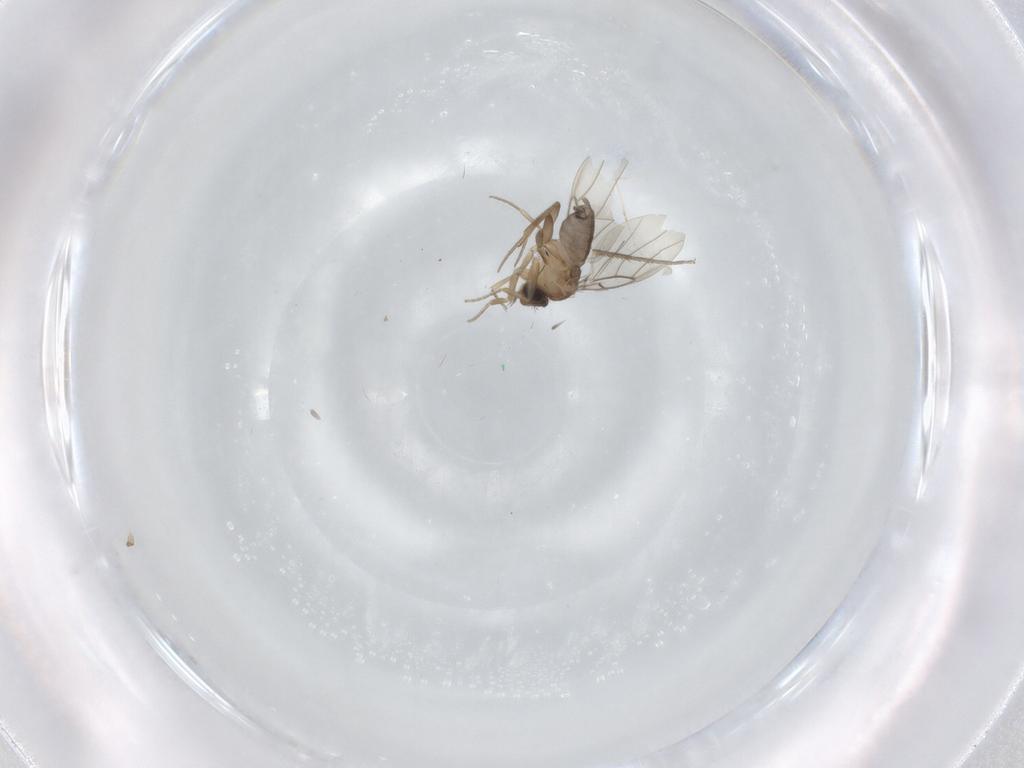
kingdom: Animalia
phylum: Arthropoda
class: Insecta
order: Diptera
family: Phoridae
